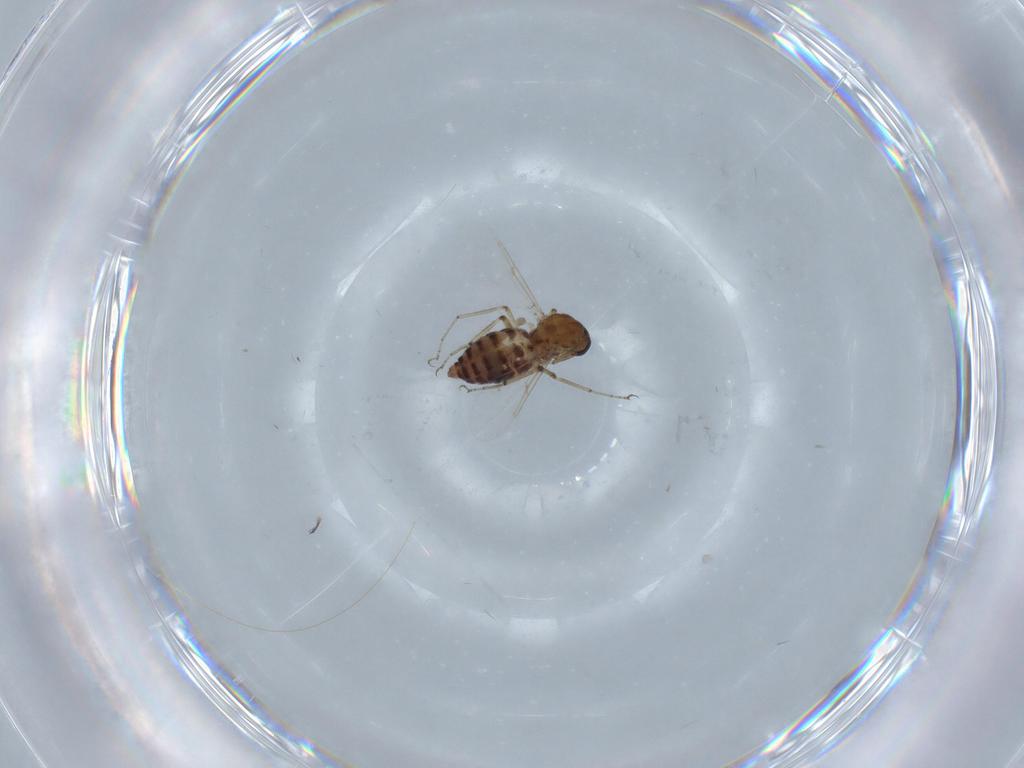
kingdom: Animalia
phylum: Arthropoda
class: Insecta
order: Diptera
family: Ceratopogonidae
